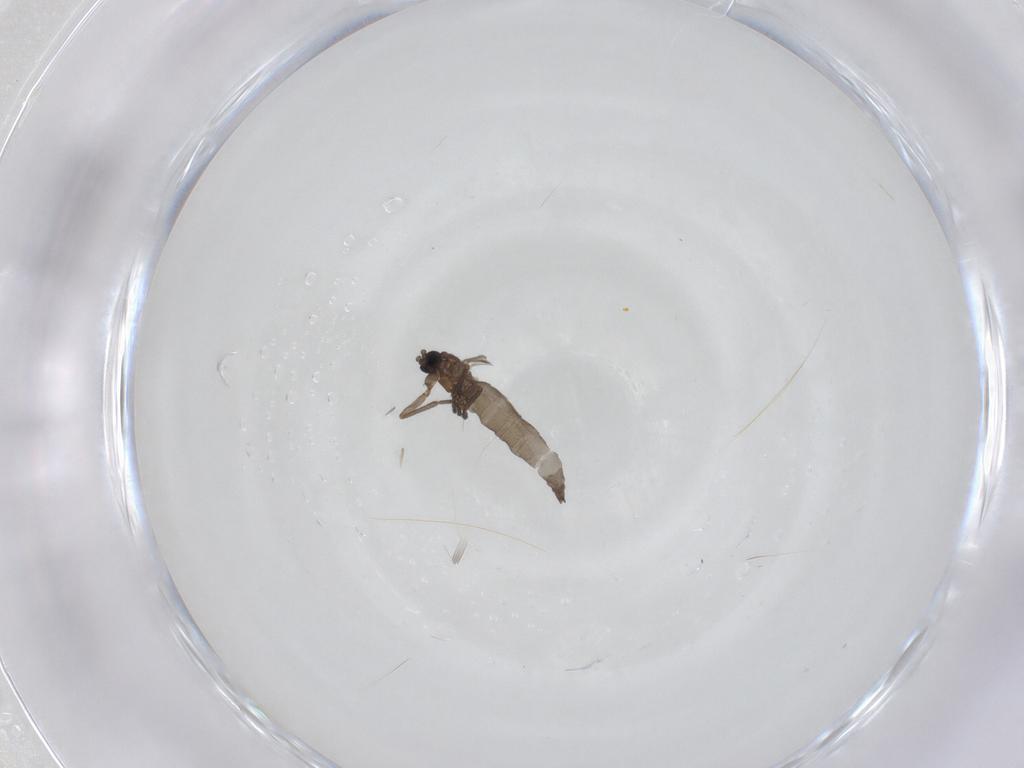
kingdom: Animalia
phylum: Arthropoda
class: Insecta
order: Diptera
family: Sciaridae
